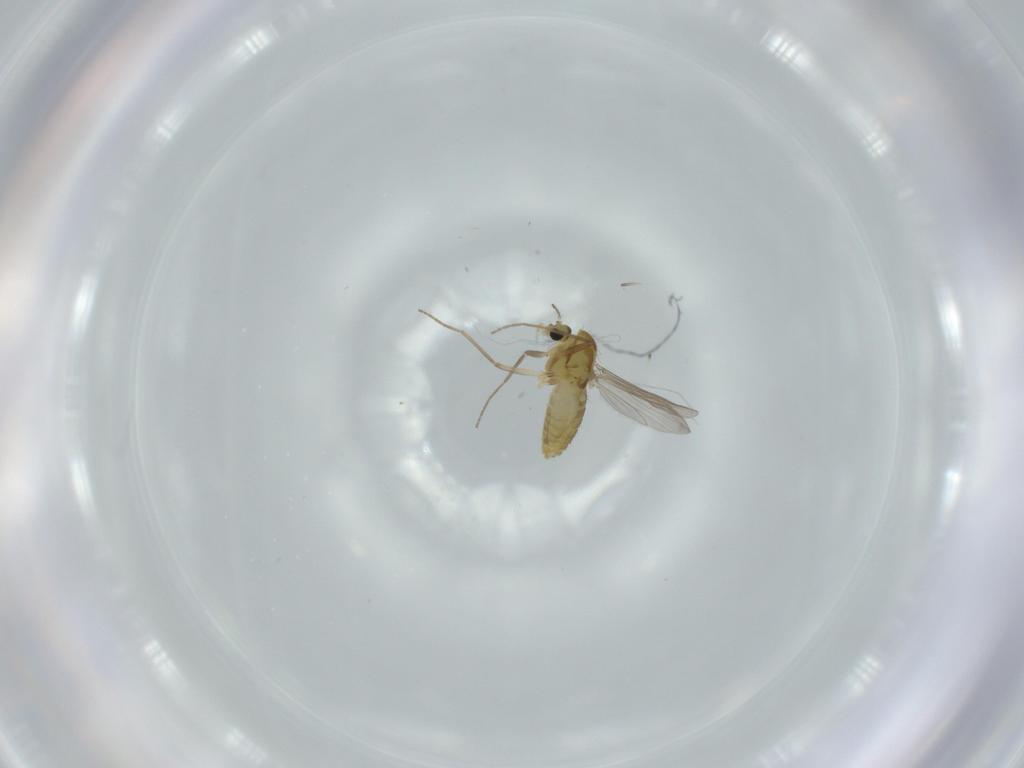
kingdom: Animalia
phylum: Arthropoda
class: Insecta
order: Diptera
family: Chironomidae
